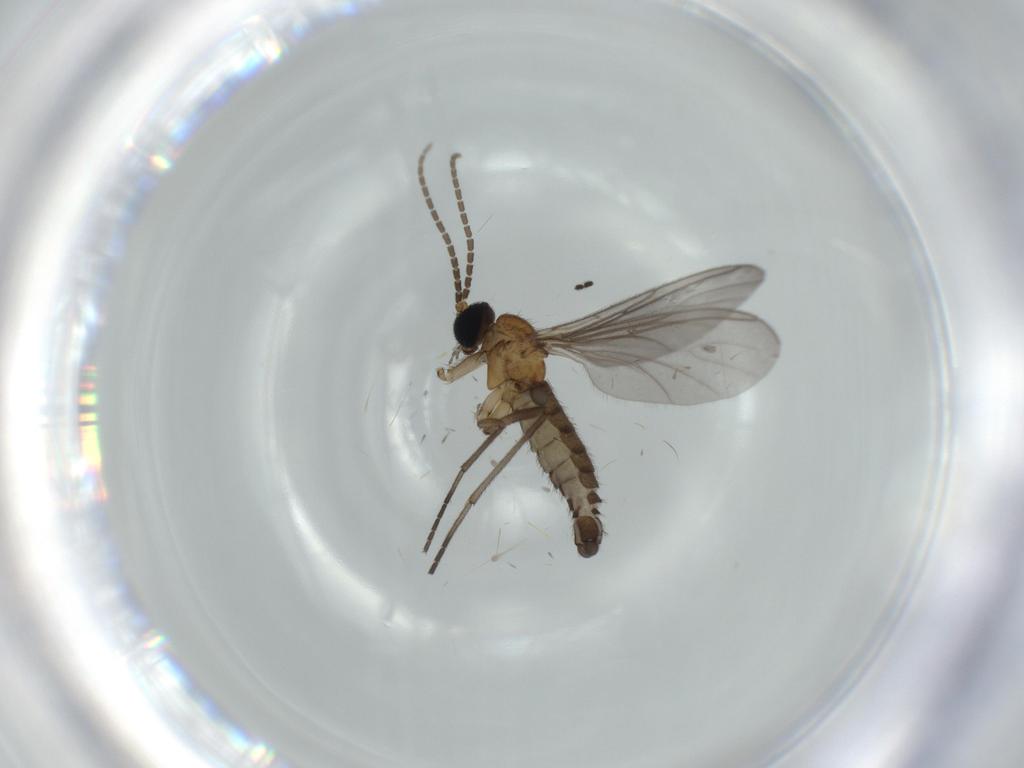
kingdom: Animalia
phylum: Arthropoda
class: Insecta
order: Diptera
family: Sciaridae
